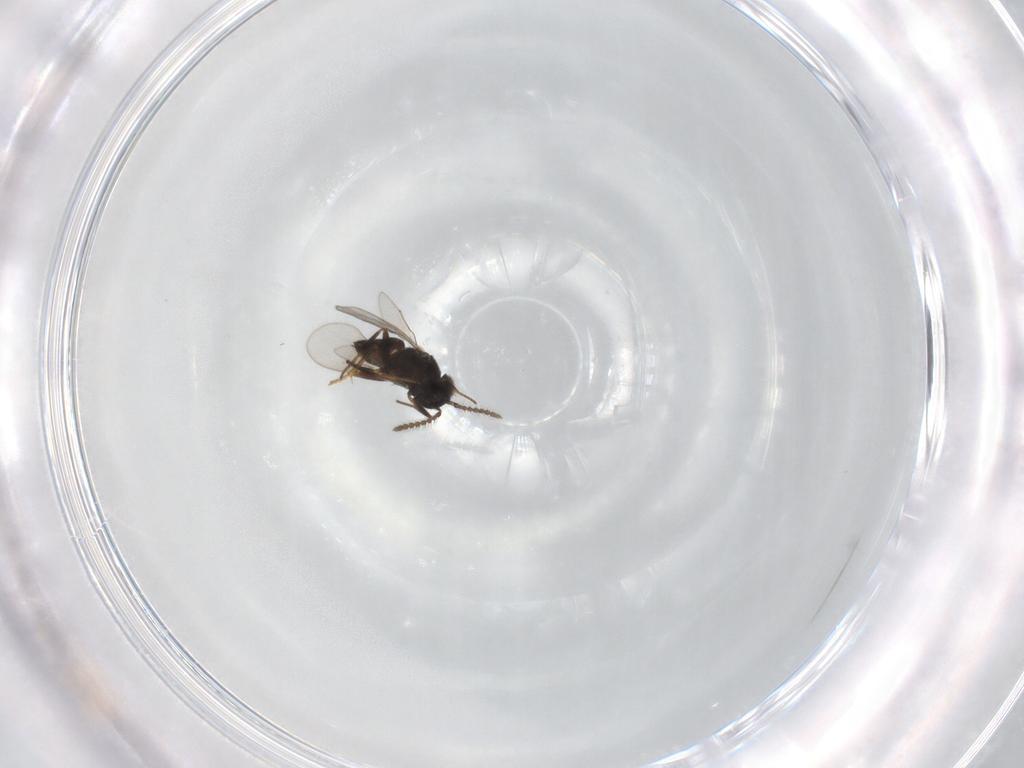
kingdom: Animalia
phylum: Arthropoda
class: Insecta
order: Hymenoptera
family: Encyrtidae
